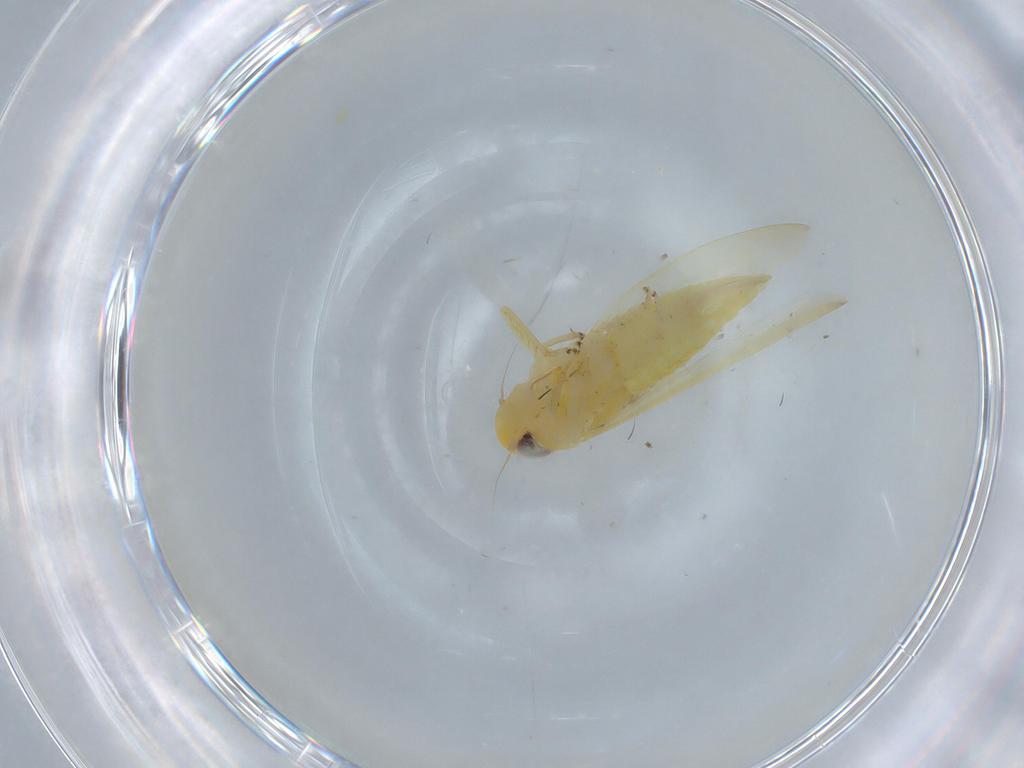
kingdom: Animalia
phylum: Arthropoda
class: Insecta
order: Hemiptera
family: Cicadellidae
